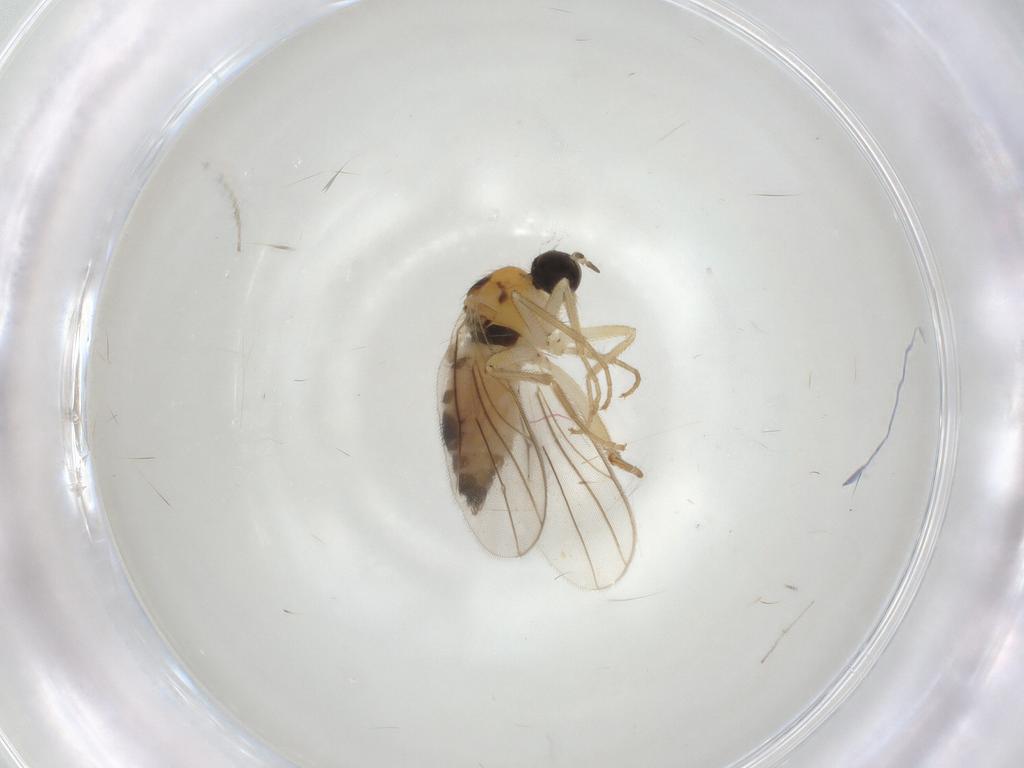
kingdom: Animalia
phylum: Arthropoda
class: Insecta
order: Diptera
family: Hybotidae
